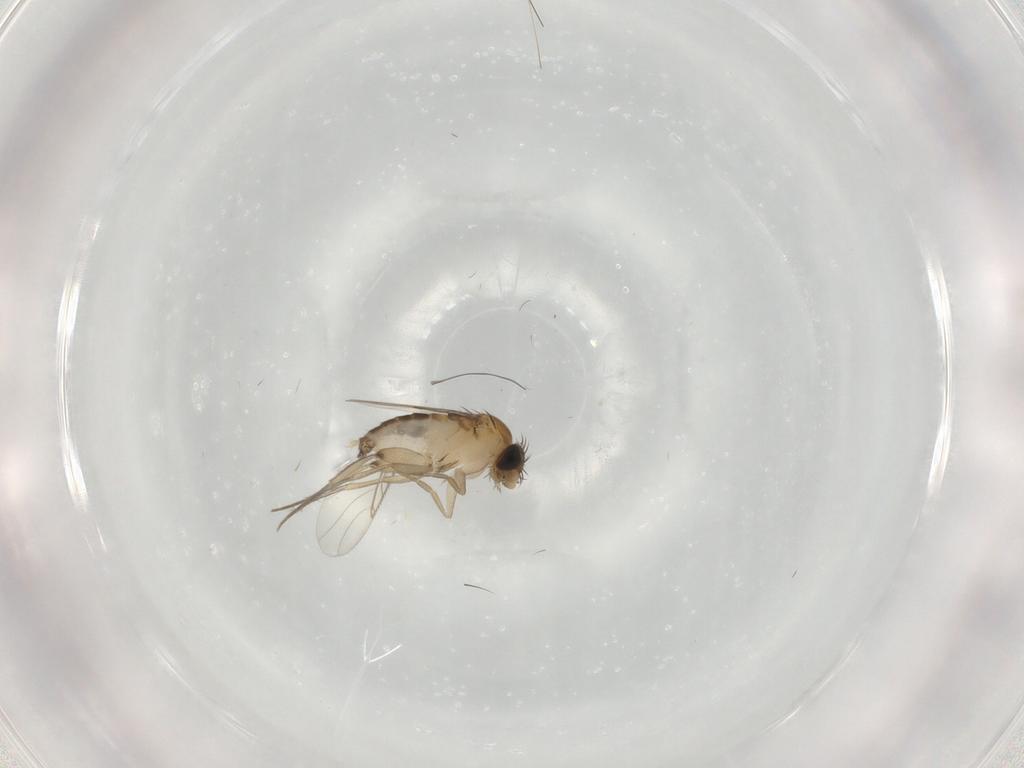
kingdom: Animalia
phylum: Arthropoda
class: Insecta
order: Diptera
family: Phoridae
